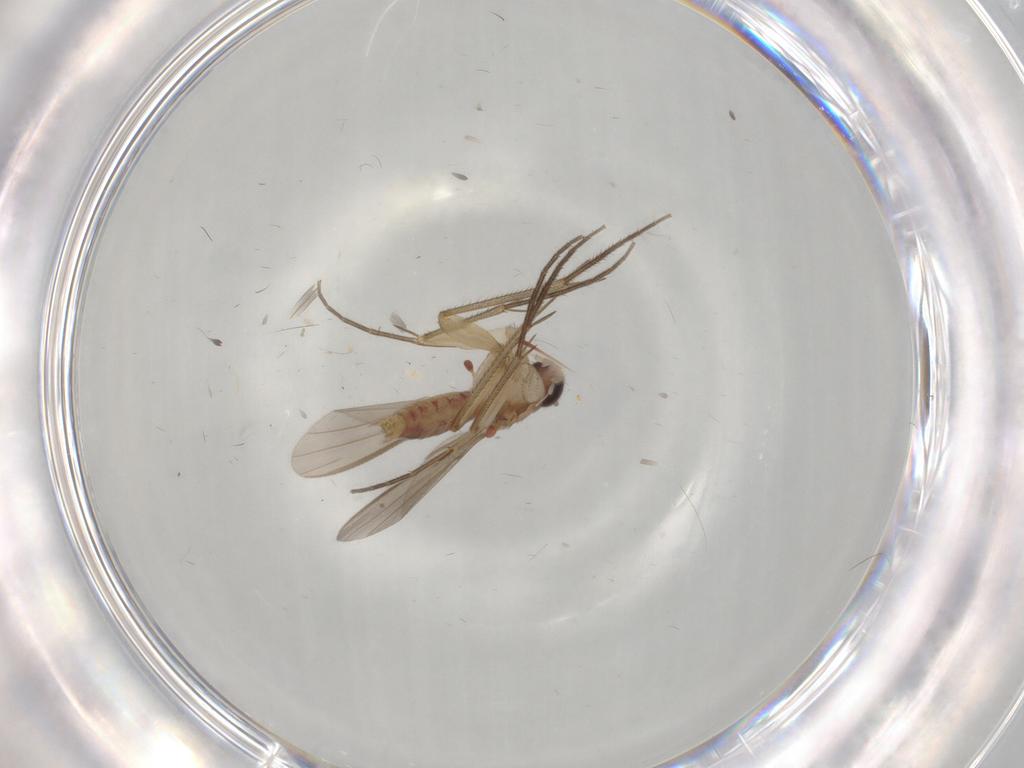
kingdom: Animalia
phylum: Arthropoda
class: Insecta
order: Diptera
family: Mycetophilidae
